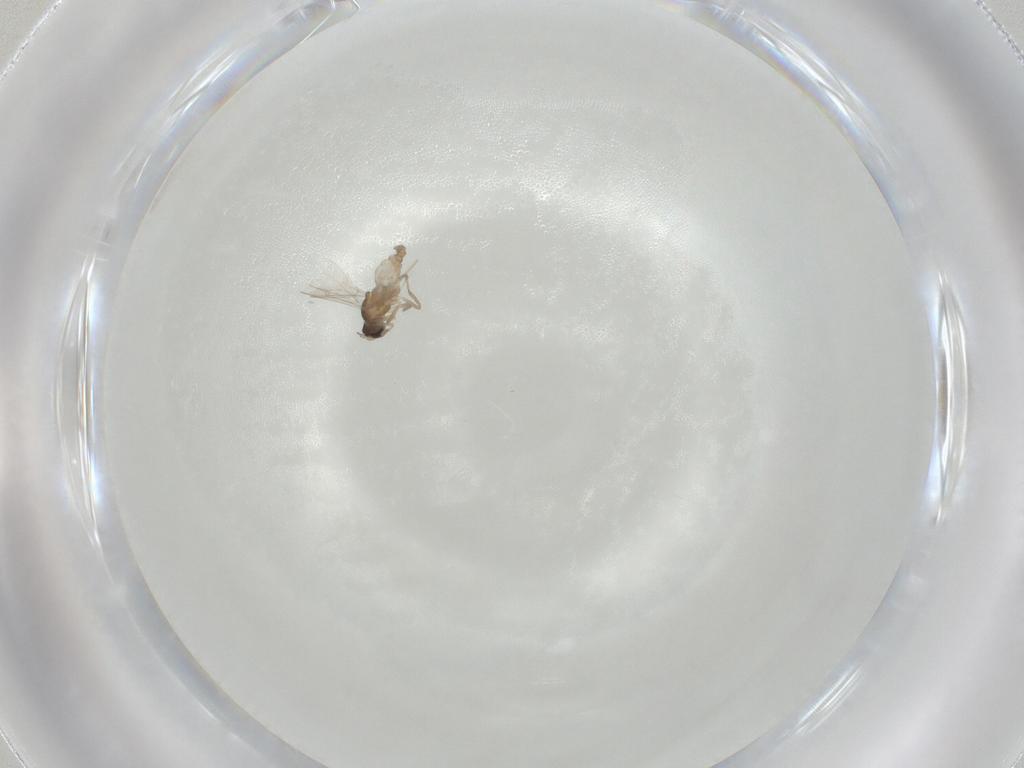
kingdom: Animalia
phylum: Arthropoda
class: Insecta
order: Diptera
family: Cecidomyiidae
